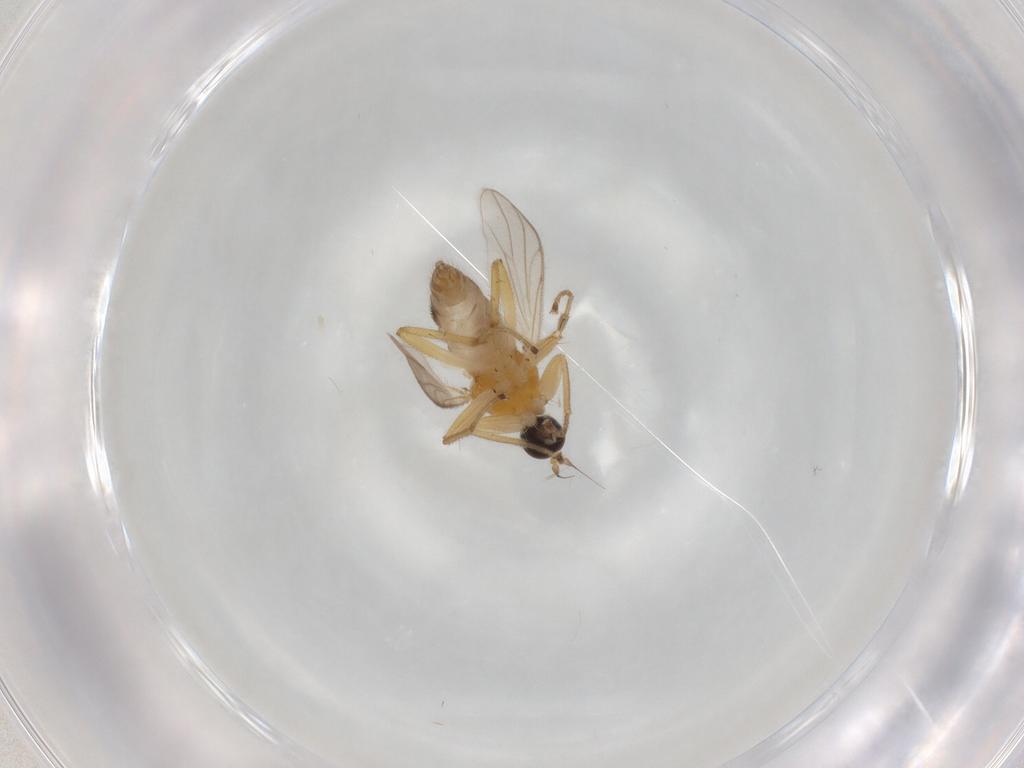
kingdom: Animalia
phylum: Arthropoda
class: Insecta
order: Diptera
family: Hybotidae
